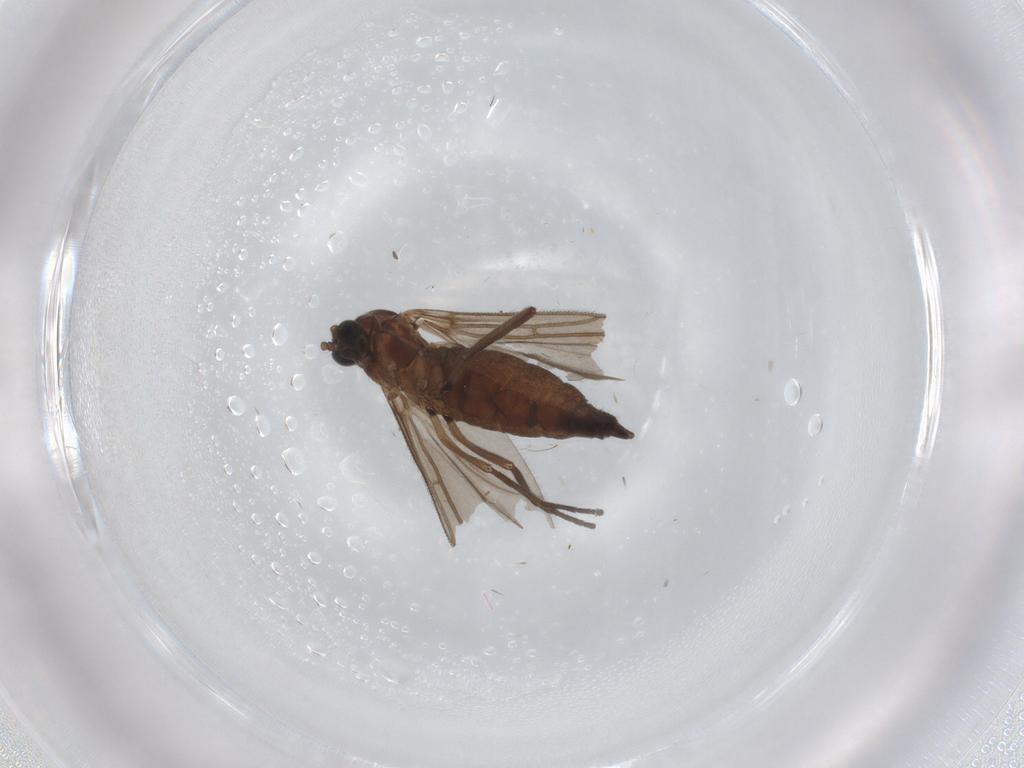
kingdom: Animalia
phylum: Arthropoda
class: Insecta
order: Diptera
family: Sciaridae
